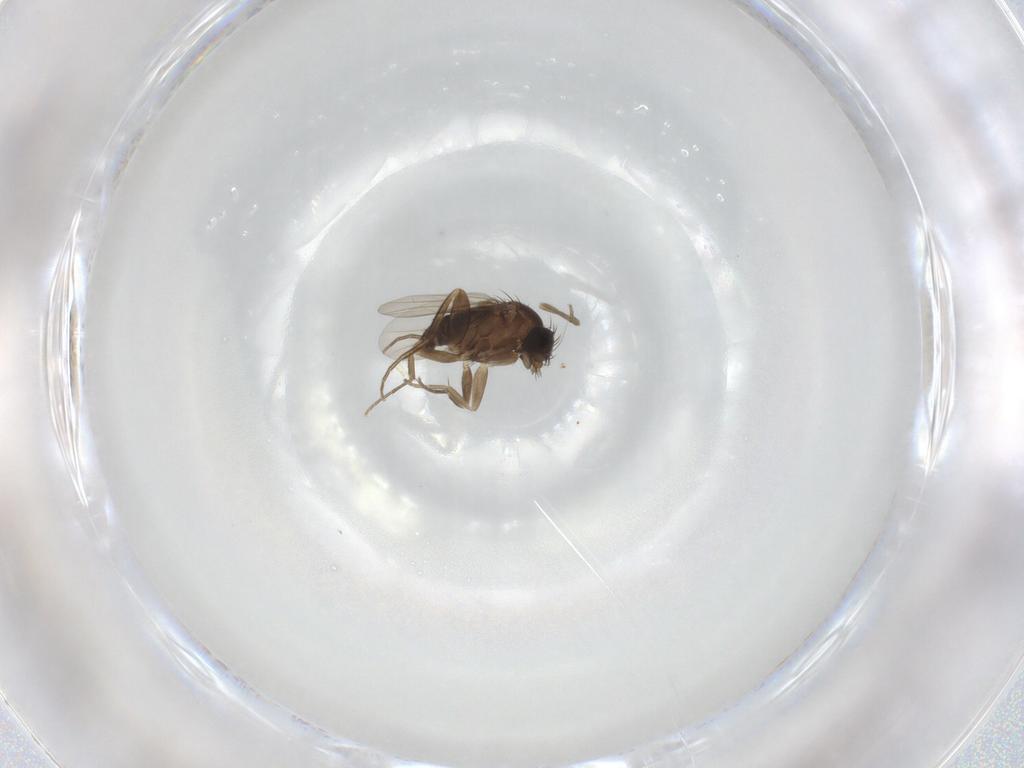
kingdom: Animalia
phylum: Arthropoda
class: Insecta
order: Diptera
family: Phoridae
